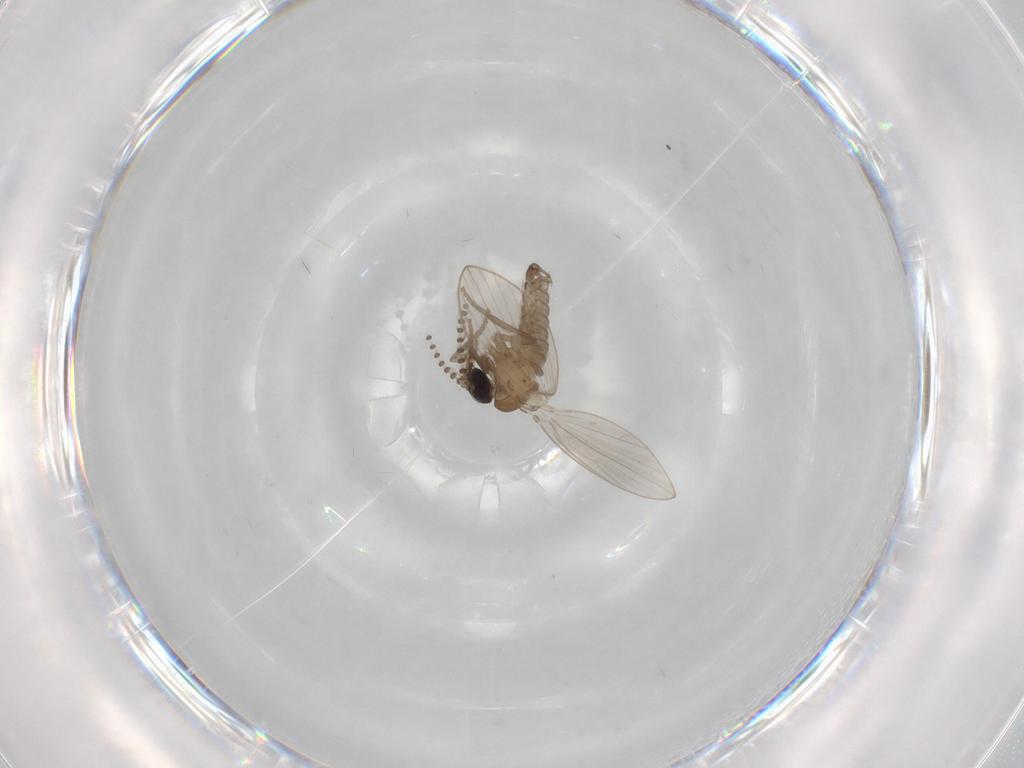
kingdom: Animalia
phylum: Arthropoda
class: Insecta
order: Diptera
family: Psychodidae
